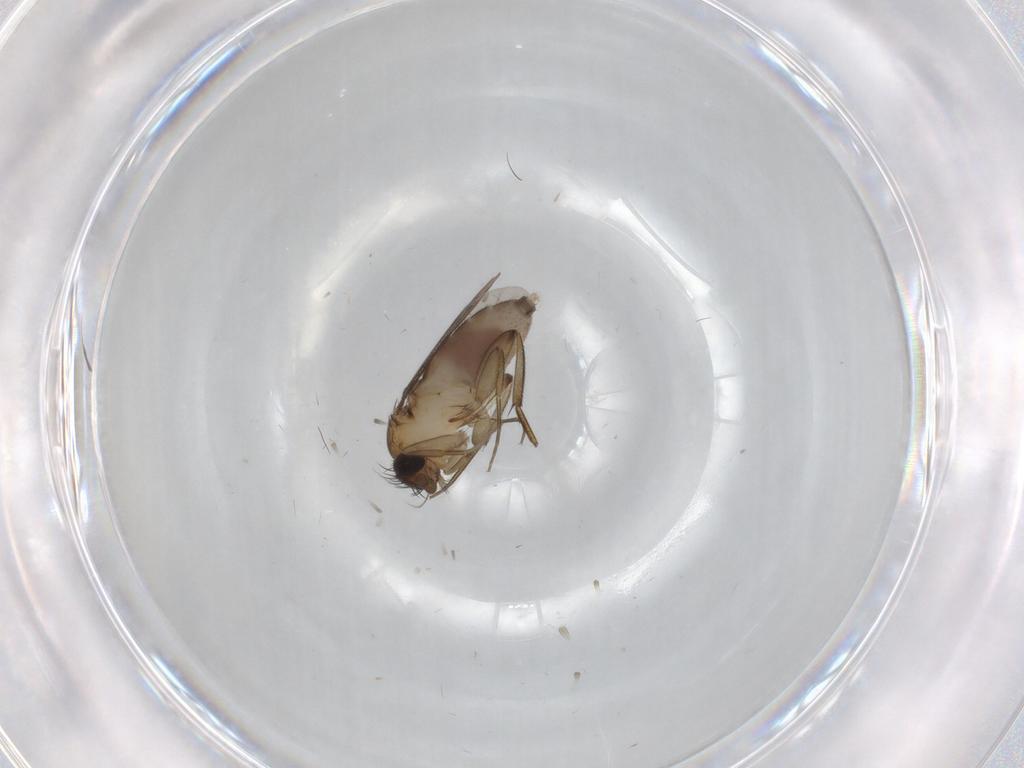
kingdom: Animalia
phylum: Arthropoda
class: Insecta
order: Diptera
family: Phoridae
